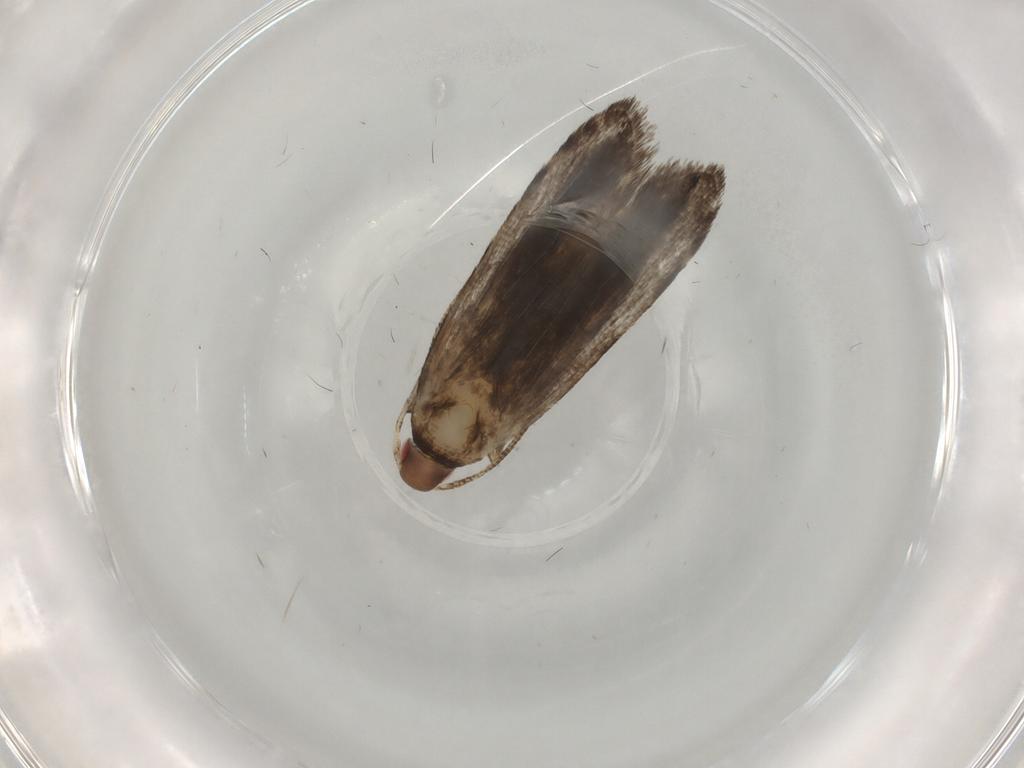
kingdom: Animalia
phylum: Arthropoda
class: Insecta
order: Lepidoptera
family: Gelechiidae
